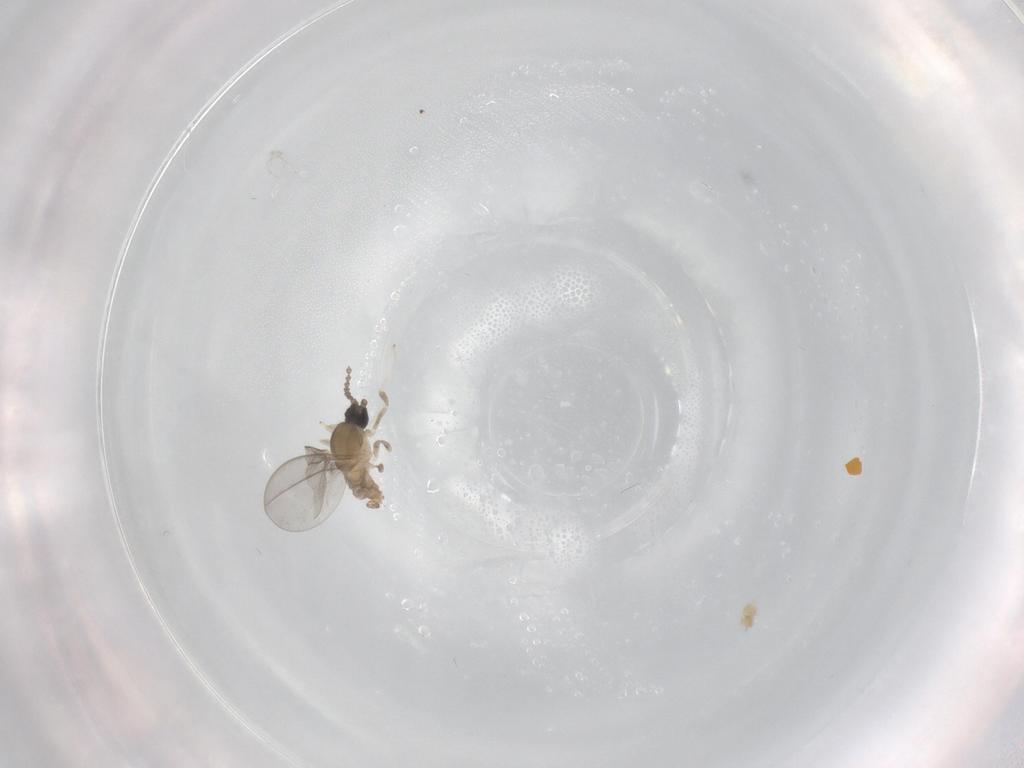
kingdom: Animalia
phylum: Arthropoda
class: Insecta
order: Diptera
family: Cecidomyiidae
